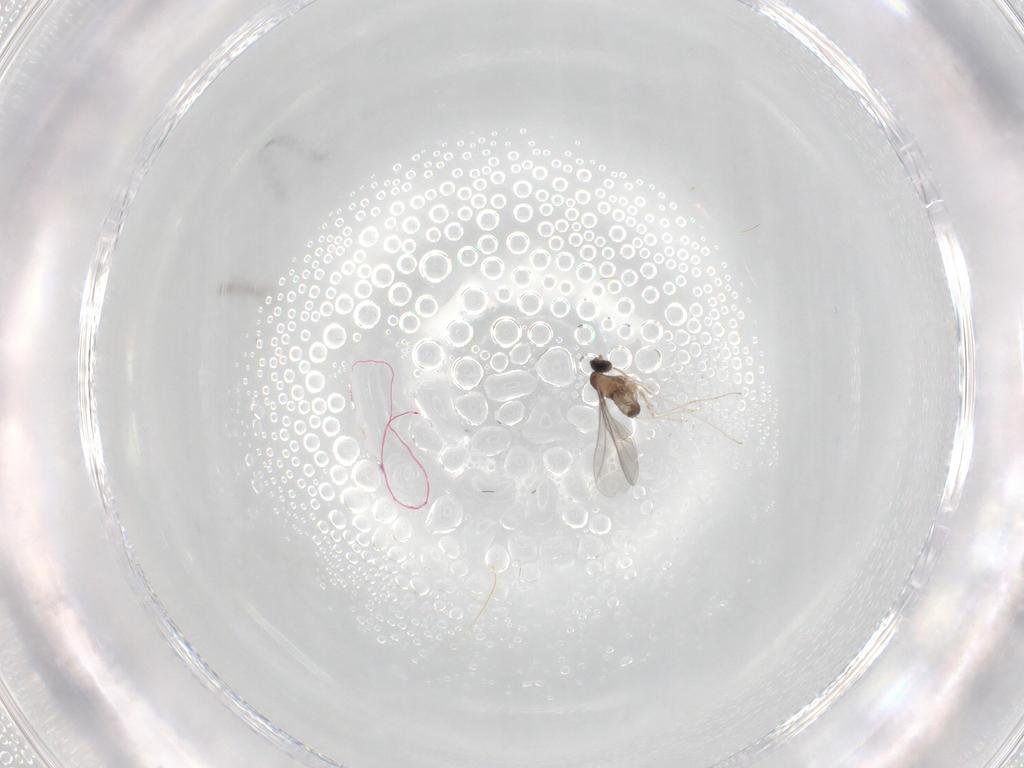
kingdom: Animalia
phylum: Arthropoda
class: Insecta
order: Diptera
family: Cecidomyiidae
